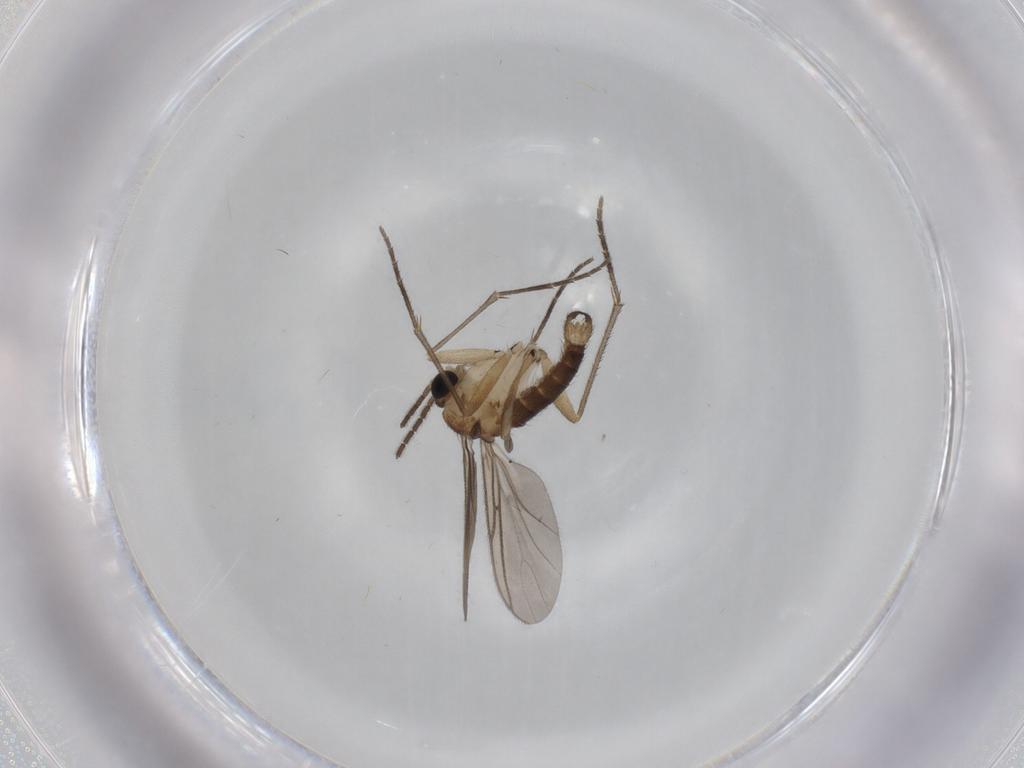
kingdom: Animalia
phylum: Arthropoda
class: Insecta
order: Diptera
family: Sciaridae
